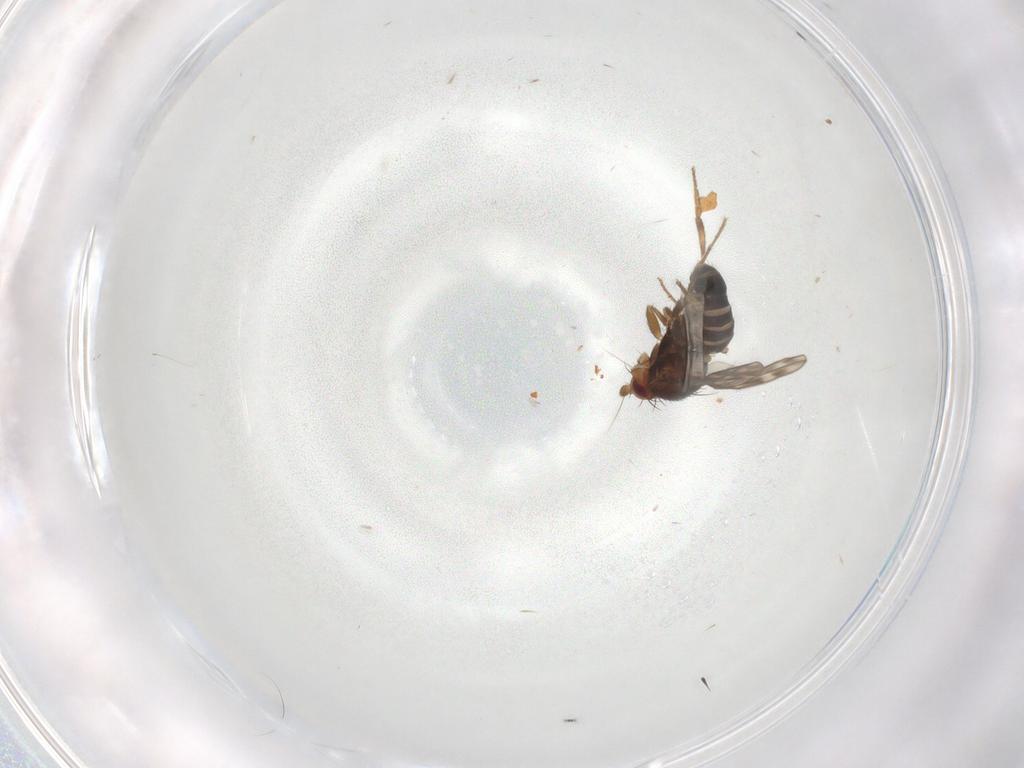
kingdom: Animalia
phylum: Arthropoda
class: Insecta
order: Diptera
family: Phoridae
